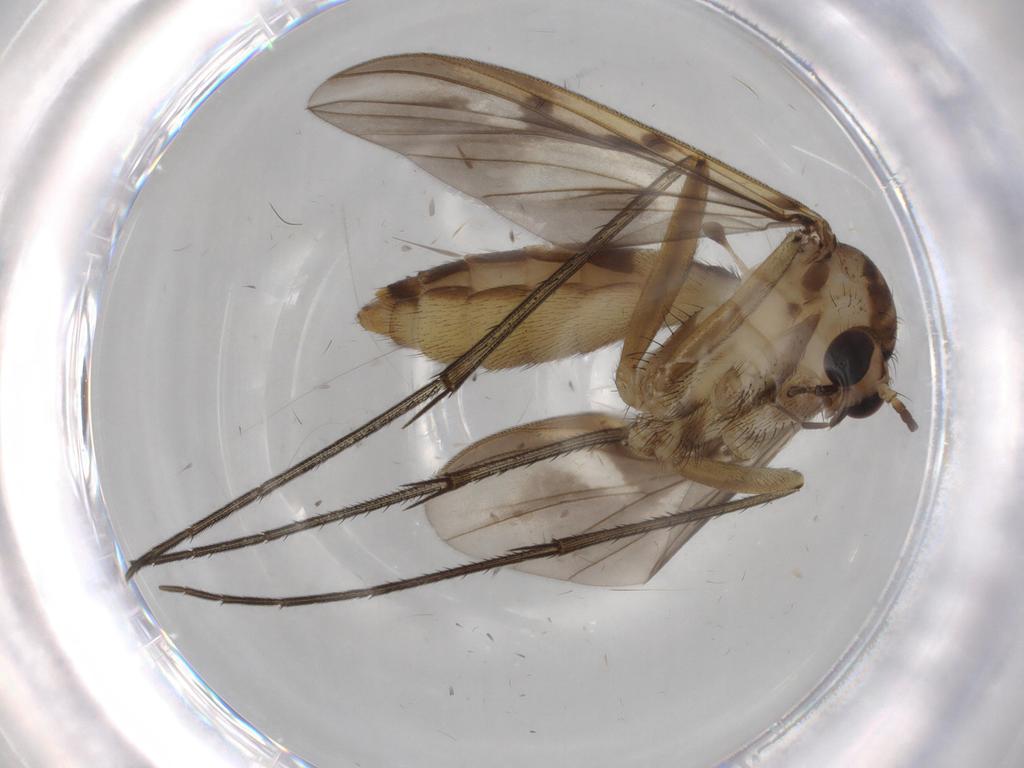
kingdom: Animalia
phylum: Arthropoda
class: Insecta
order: Diptera
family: Mycetophilidae
